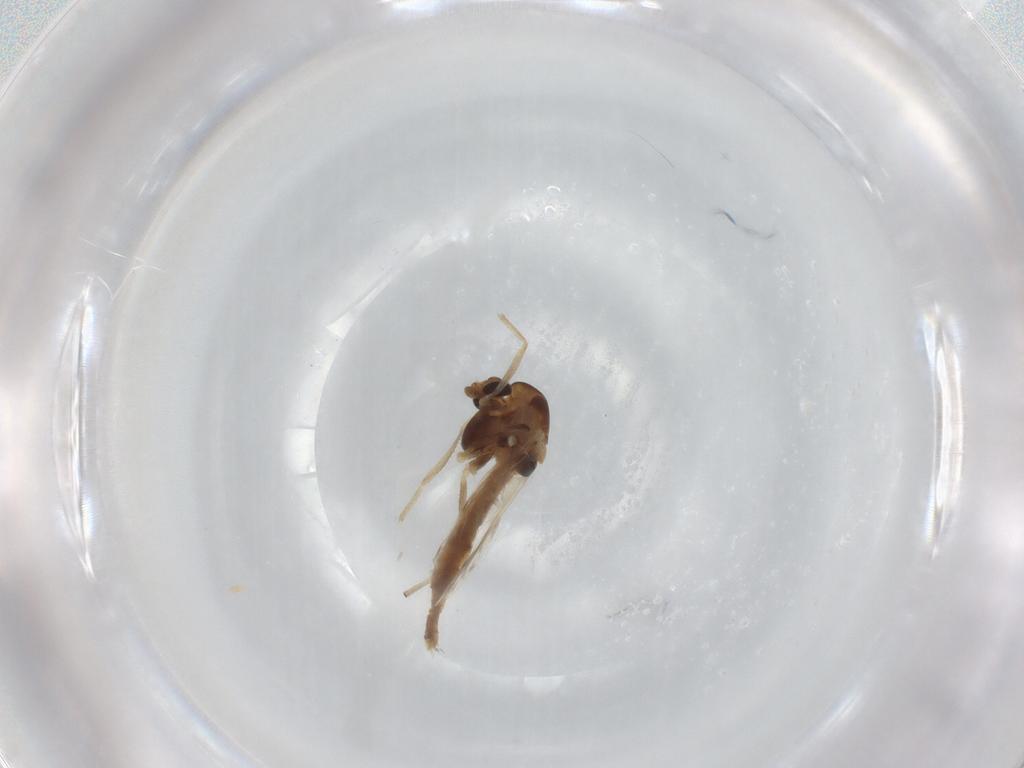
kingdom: Animalia
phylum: Arthropoda
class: Insecta
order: Diptera
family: Chironomidae
